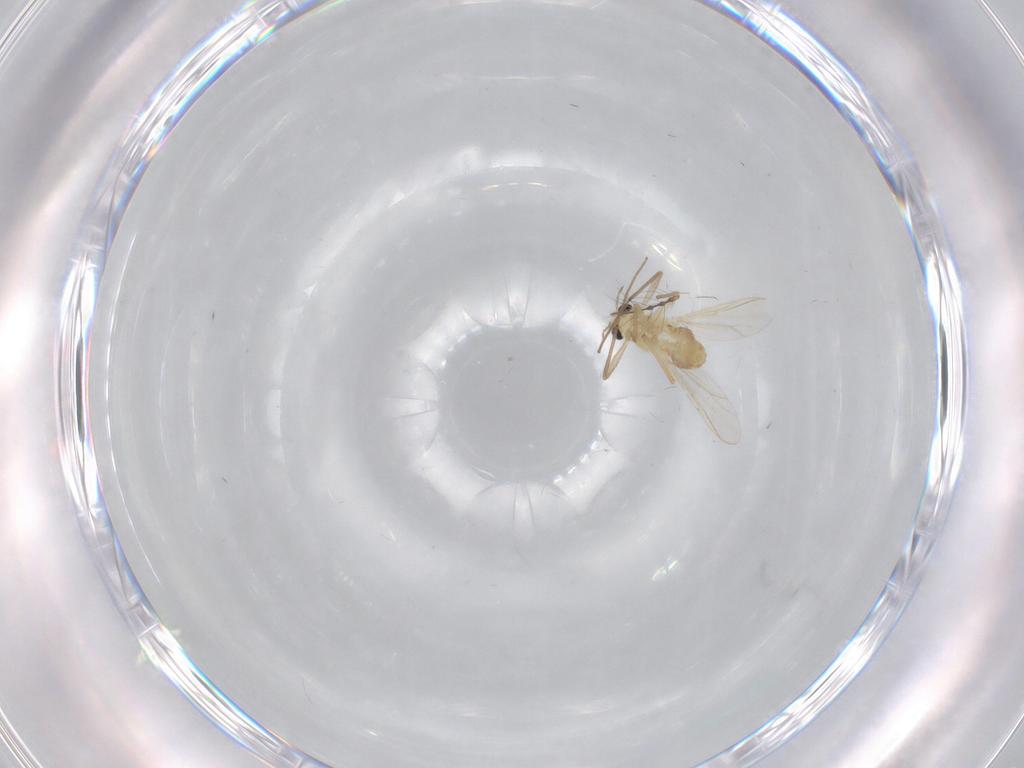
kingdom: Animalia
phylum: Arthropoda
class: Insecta
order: Diptera
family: Chironomidae
